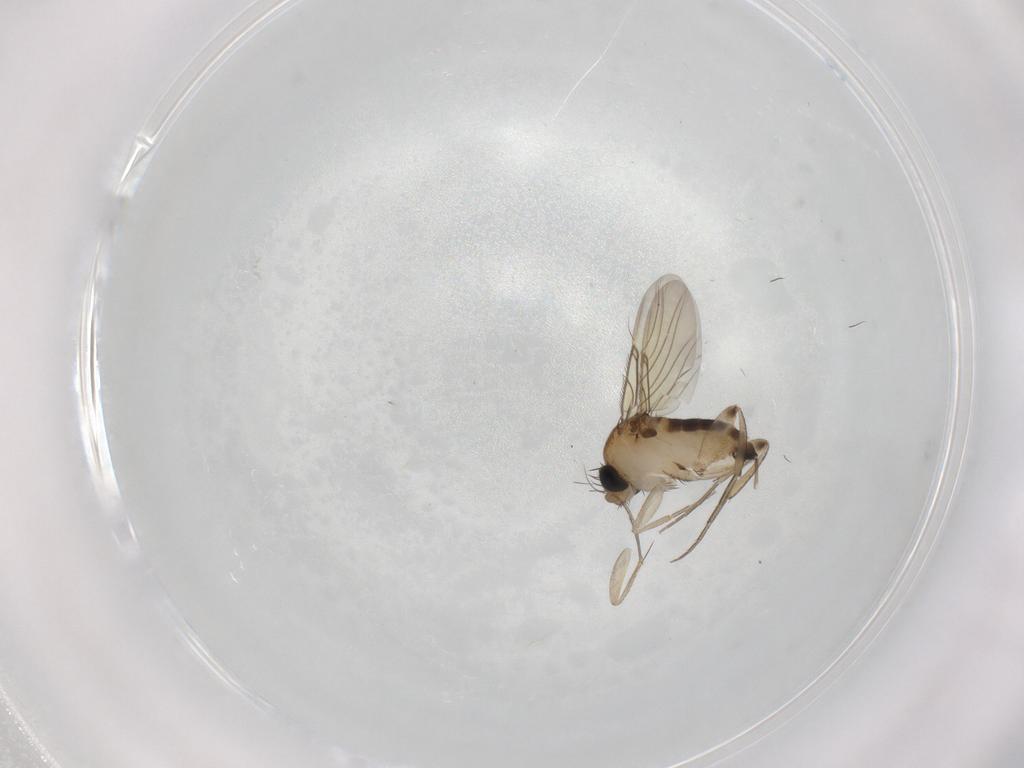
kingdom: Animalia
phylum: Arthropoda
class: Insecta
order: Diptera
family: Phoridae
